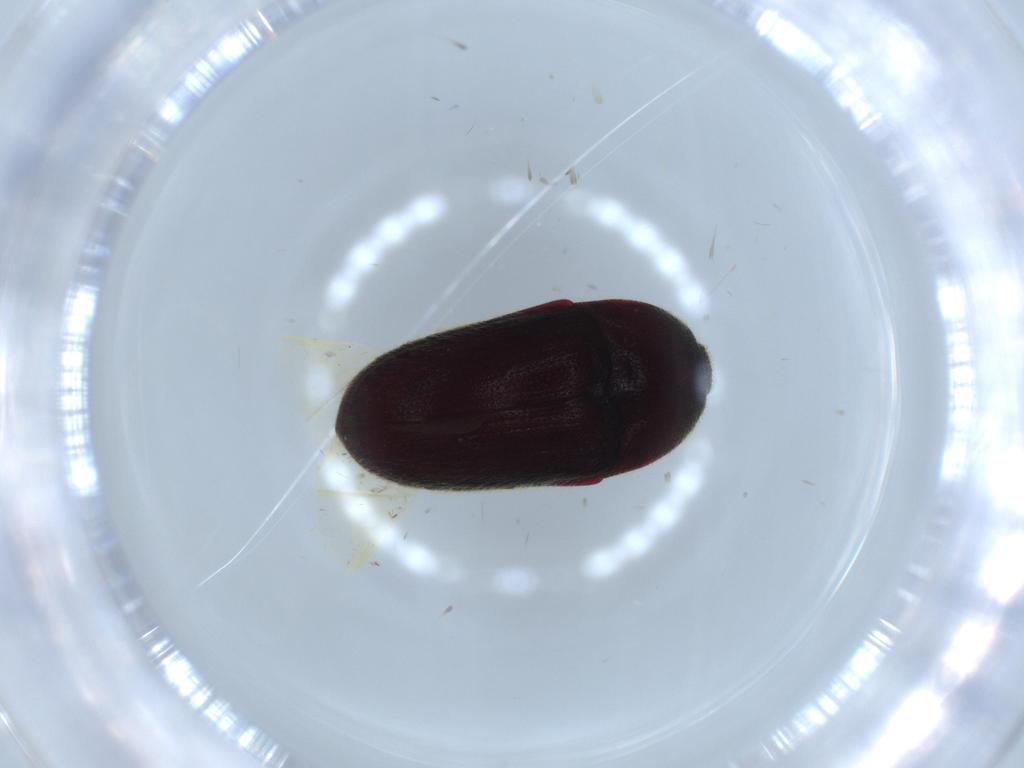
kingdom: Animalia
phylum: Arthropoda
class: Insecta
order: Coleoptera
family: Throscidae
